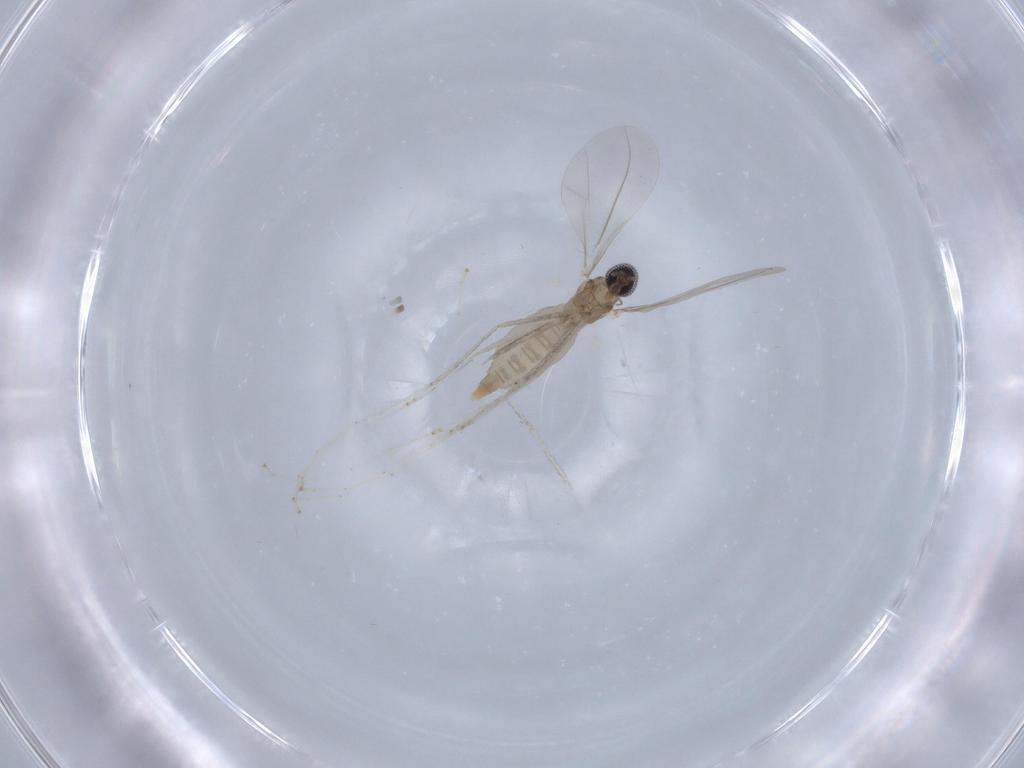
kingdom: Animalia
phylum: Arthropoda
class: Insecta
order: Diptera
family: Cecidomyiidae
